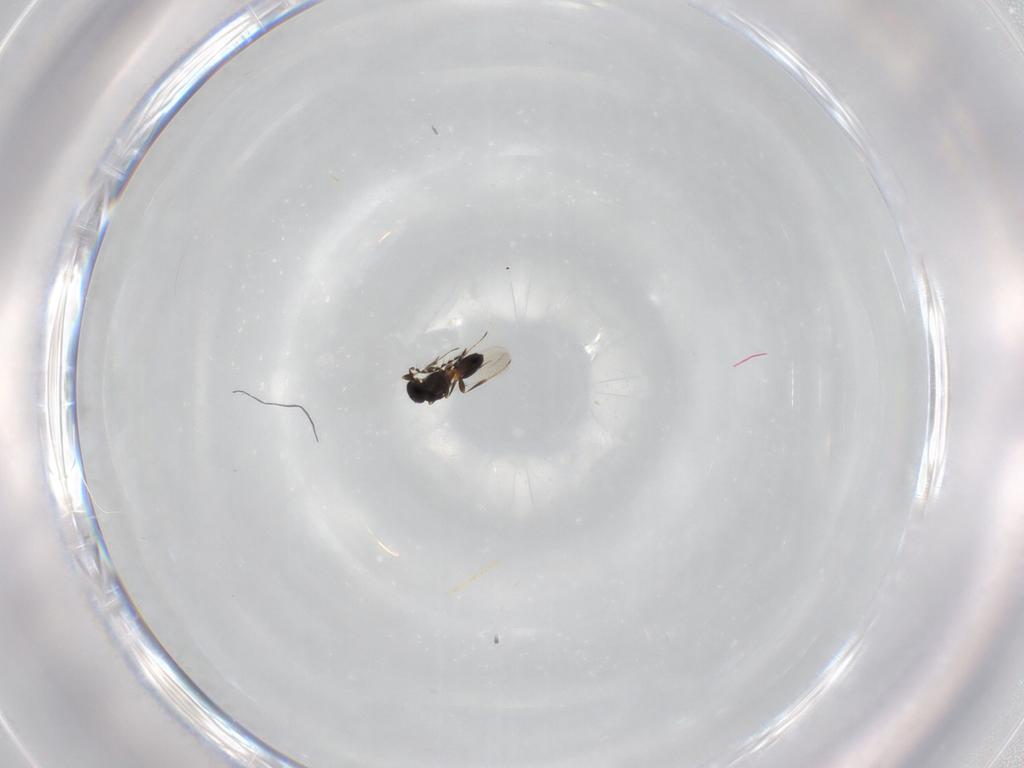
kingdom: Animalia
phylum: Arthropoda
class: Insecta
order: Hymenoptera
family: Platygastridae
